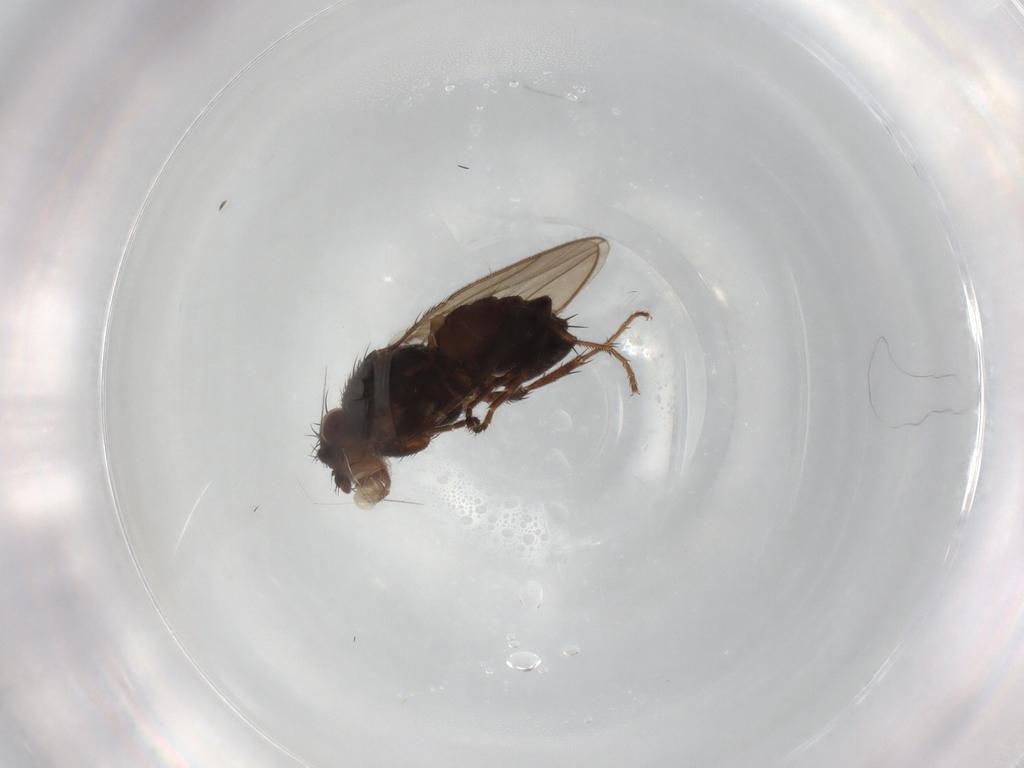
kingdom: Animalia
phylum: Arthropoda
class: Insecta
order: Diptera
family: Sphaeroceridae
